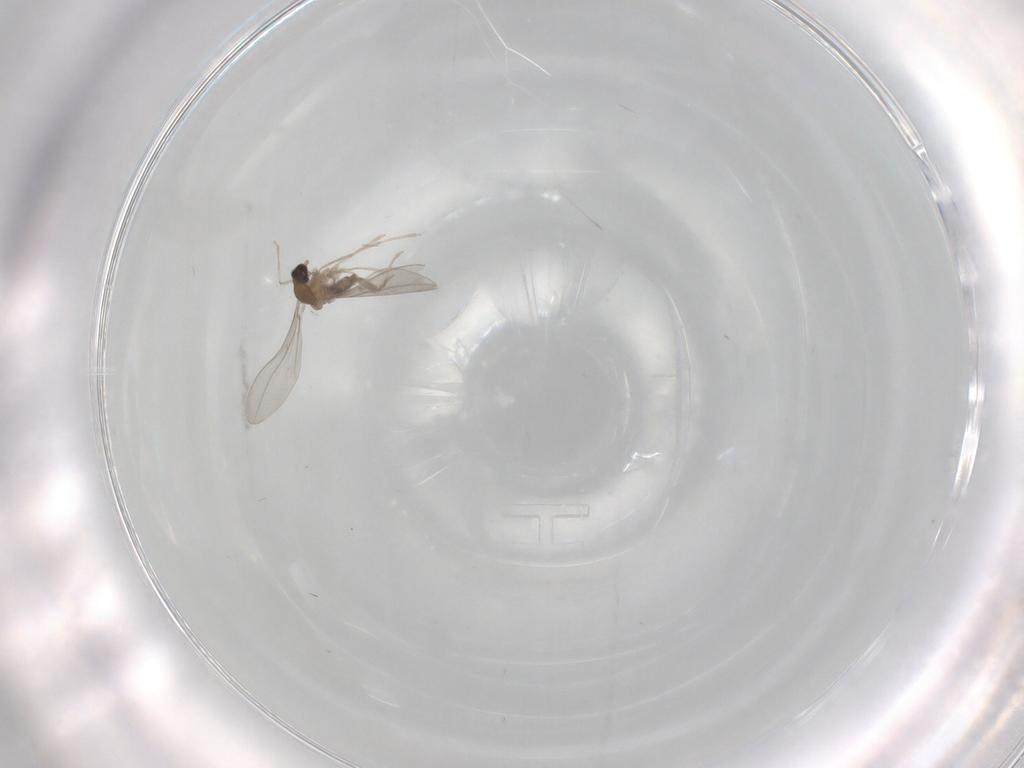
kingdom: Animalia
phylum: Arthropoda
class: Insecta
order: Diptera
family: Cecidomyiidae
